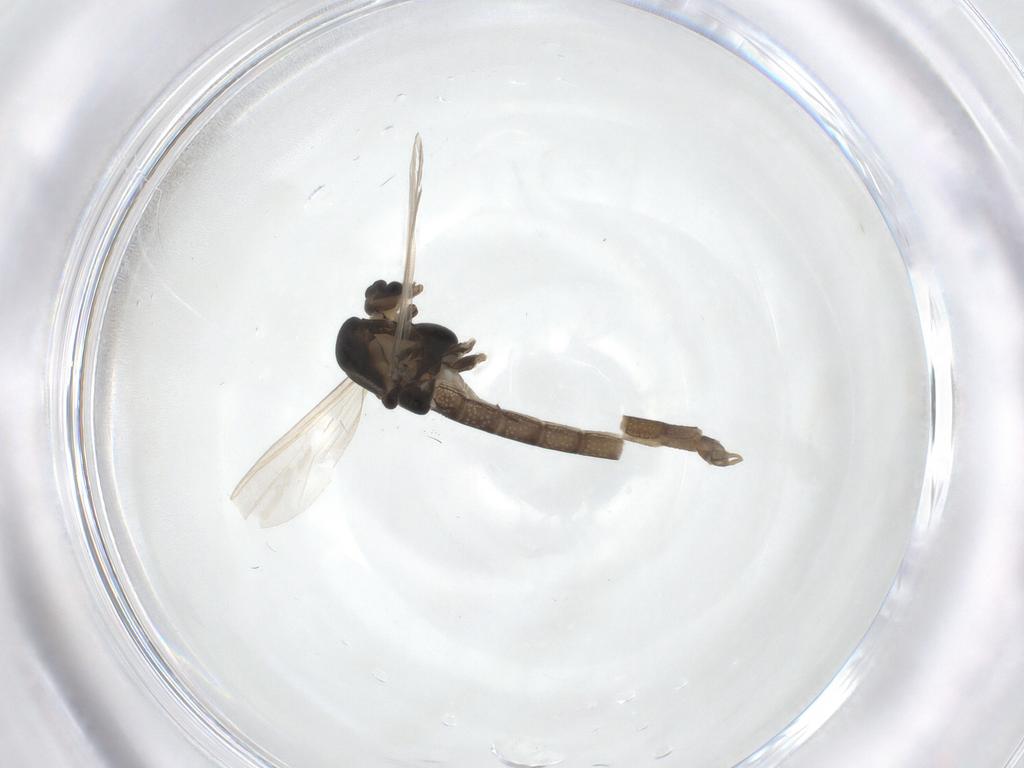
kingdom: Animalia
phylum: Arthropoda
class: Insecta
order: Diptera
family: Chironomidae
